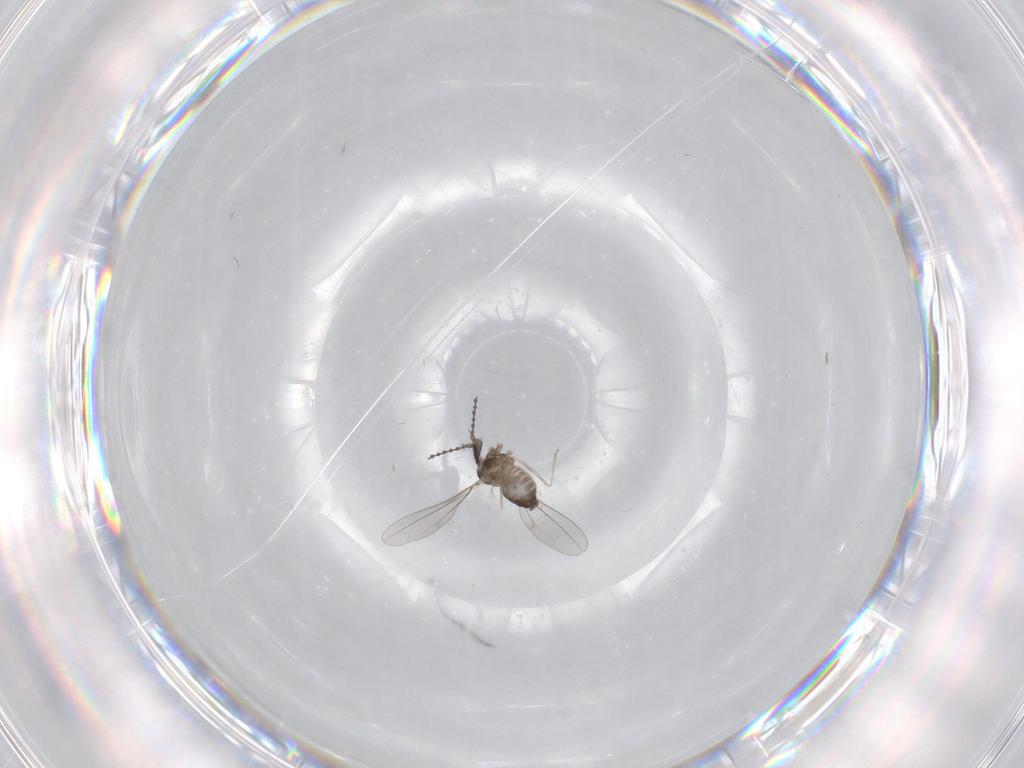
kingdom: Animalia
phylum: Arthropoda
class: Insecta
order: Diptera
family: Cecidomyiidae
